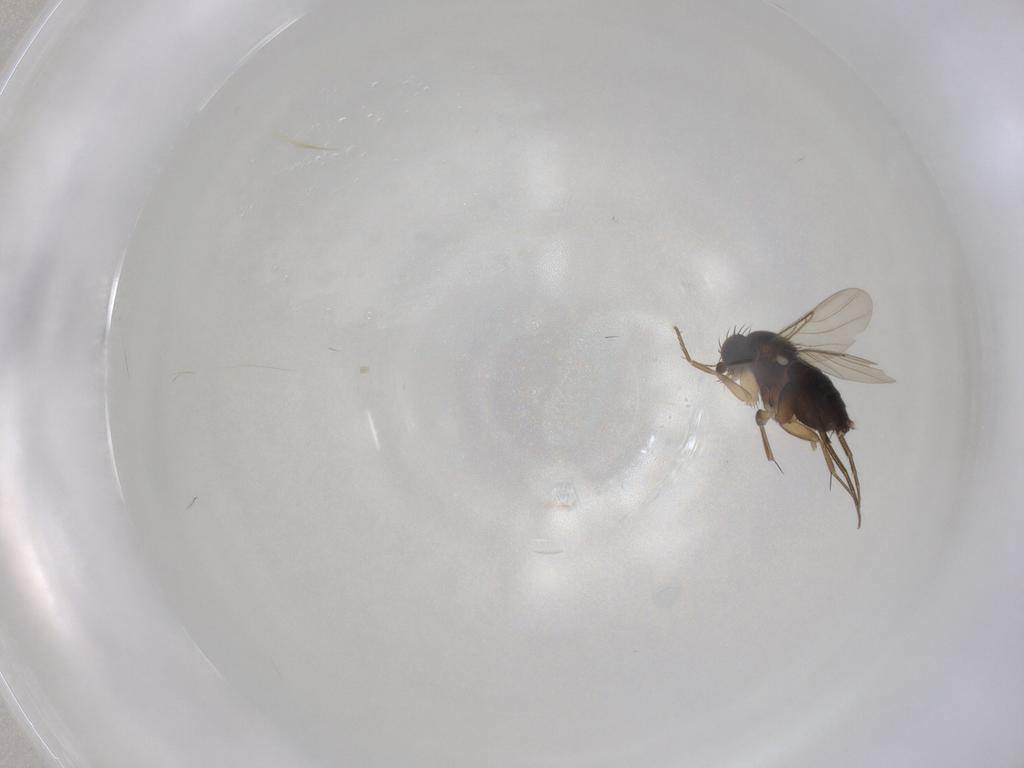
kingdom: Animalia
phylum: Arthropoda
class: Insecta
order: Diptera
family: Phoridae
